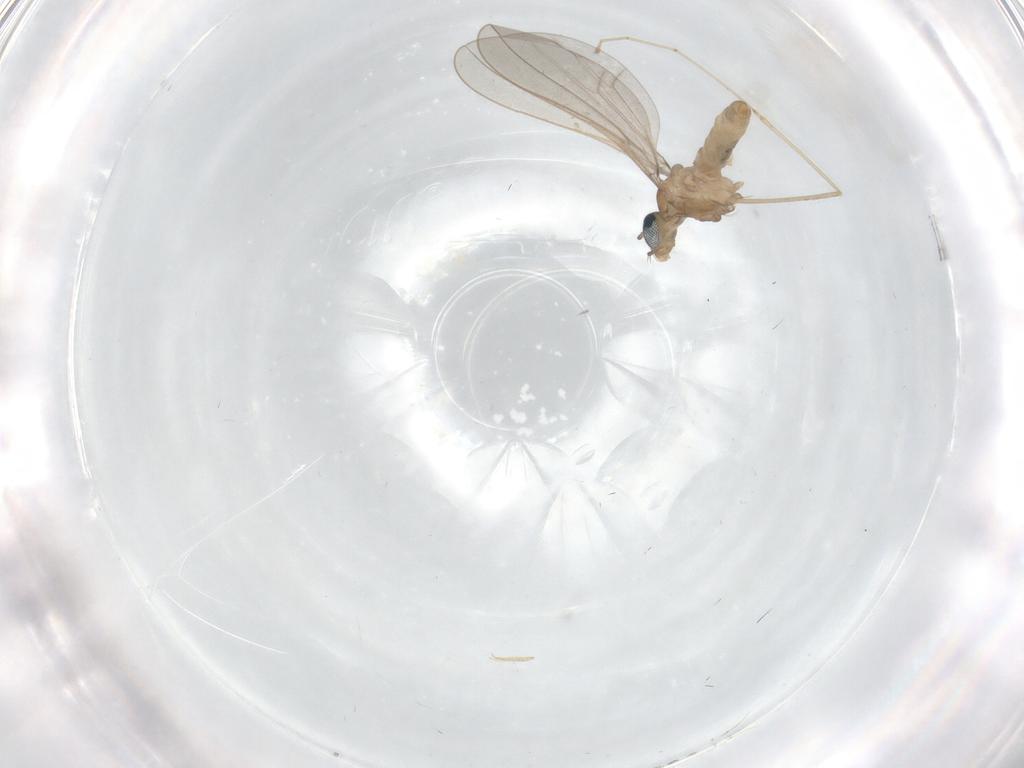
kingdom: Animalia
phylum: Arthropoda
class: Insecta
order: Diptera
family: Cecidomyiidae
